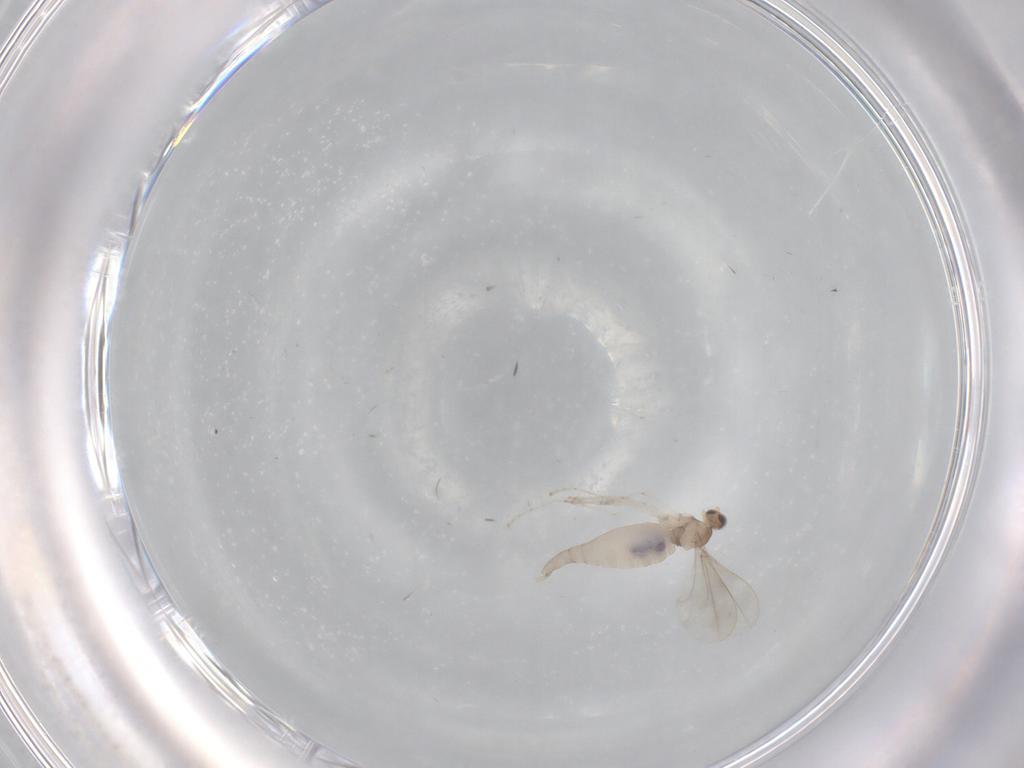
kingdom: Animalia
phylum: Arthropoda
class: Insecta
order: Diptera
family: Cecidomyiidae
